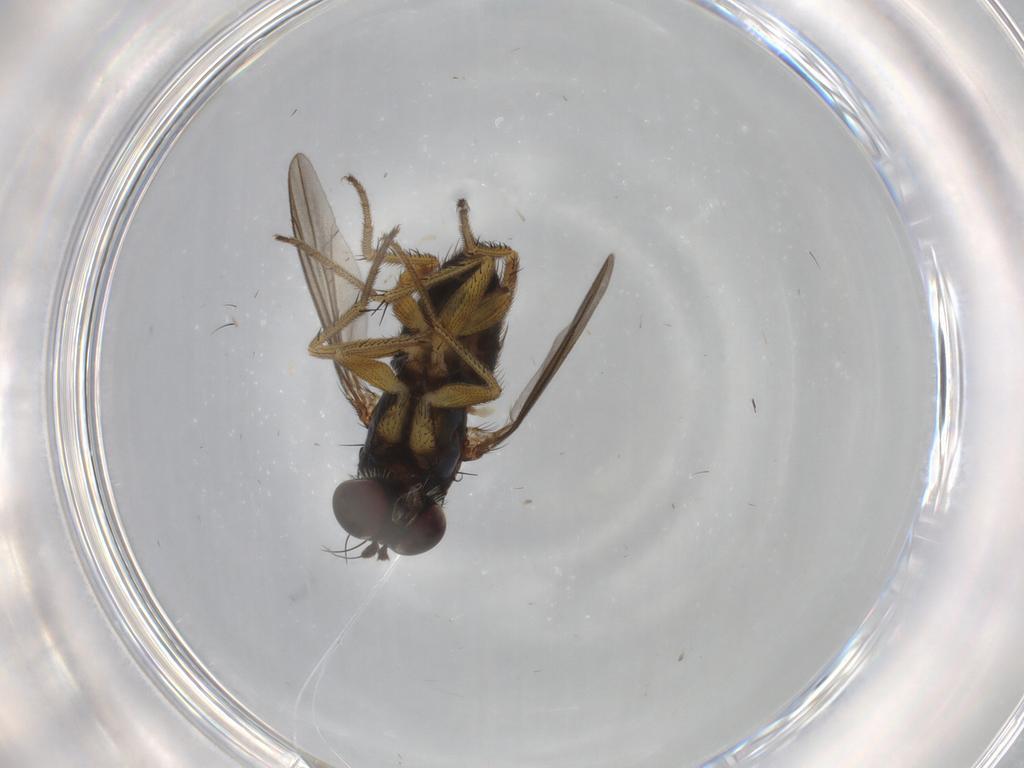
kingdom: Animalia
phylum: Arthropoda
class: Insecta
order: Diptera
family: Dolichopodidae
